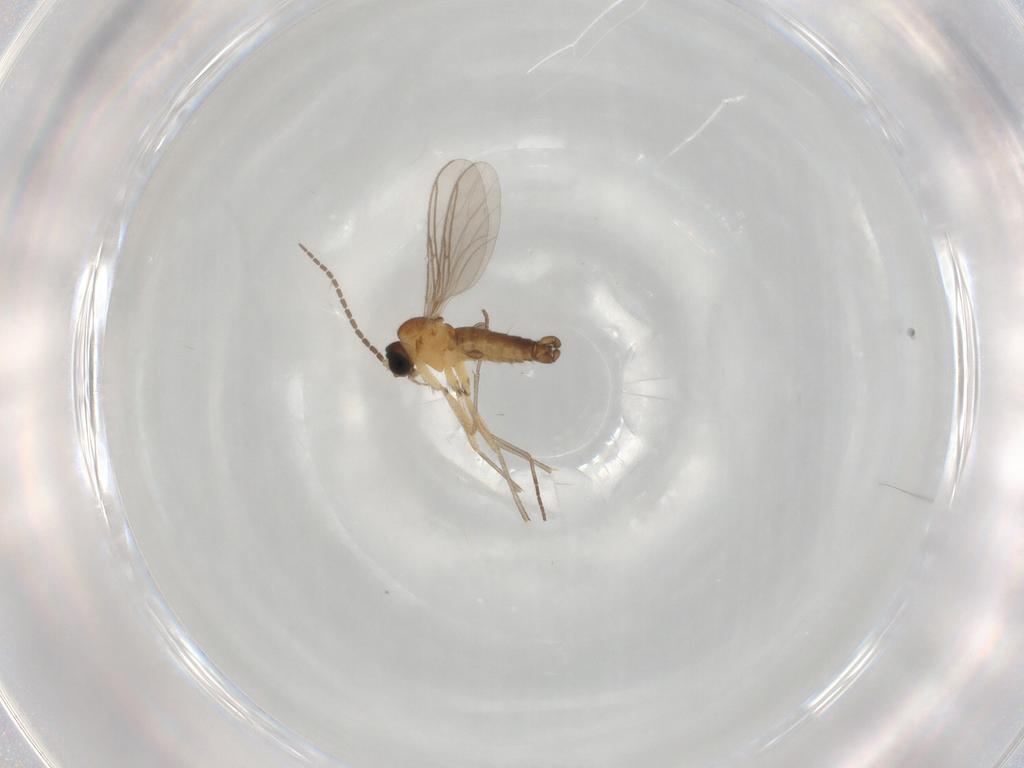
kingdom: Animalia
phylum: Arthropoda
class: Insecta
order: Diptera
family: Sciaridae
